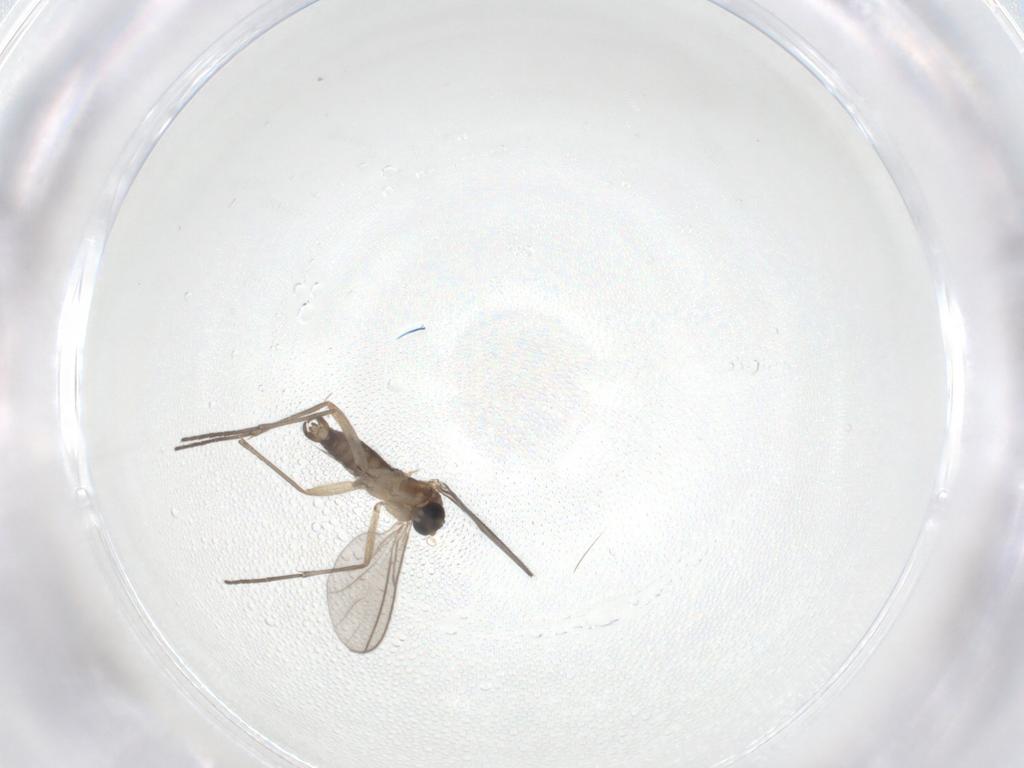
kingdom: Animalia
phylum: Arthropoda
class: Insecta
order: Diptera
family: Sciaridae
